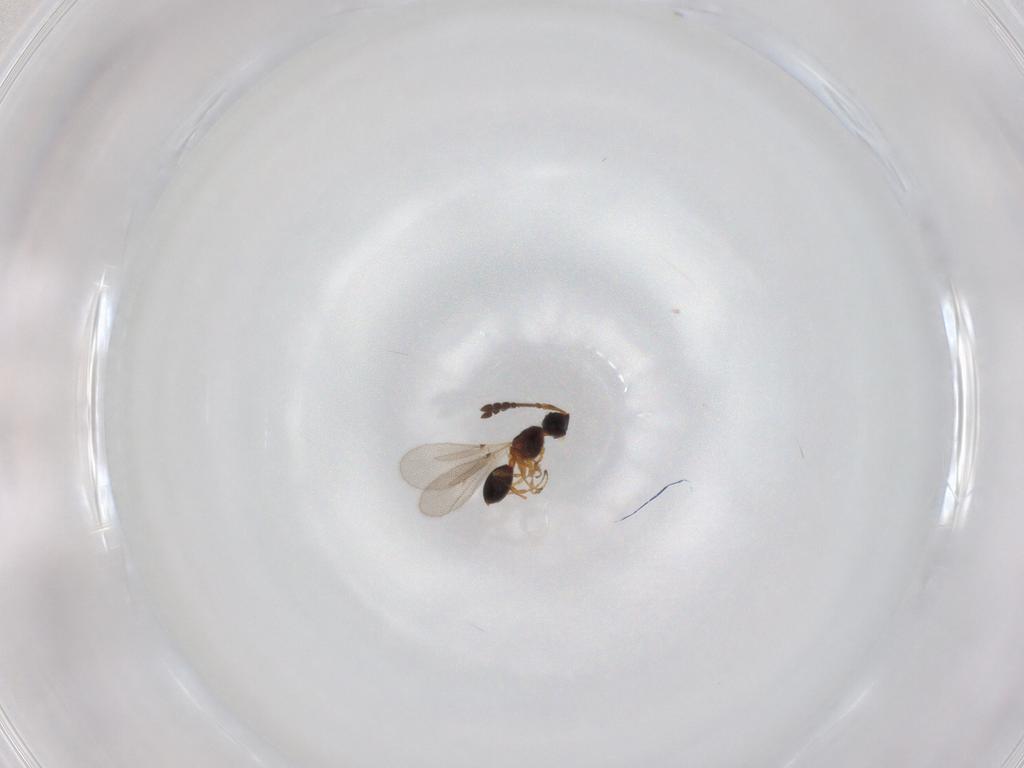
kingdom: Animalia
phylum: Arthropoda
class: Insecta
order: Hymenoptera
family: Diapriidae
